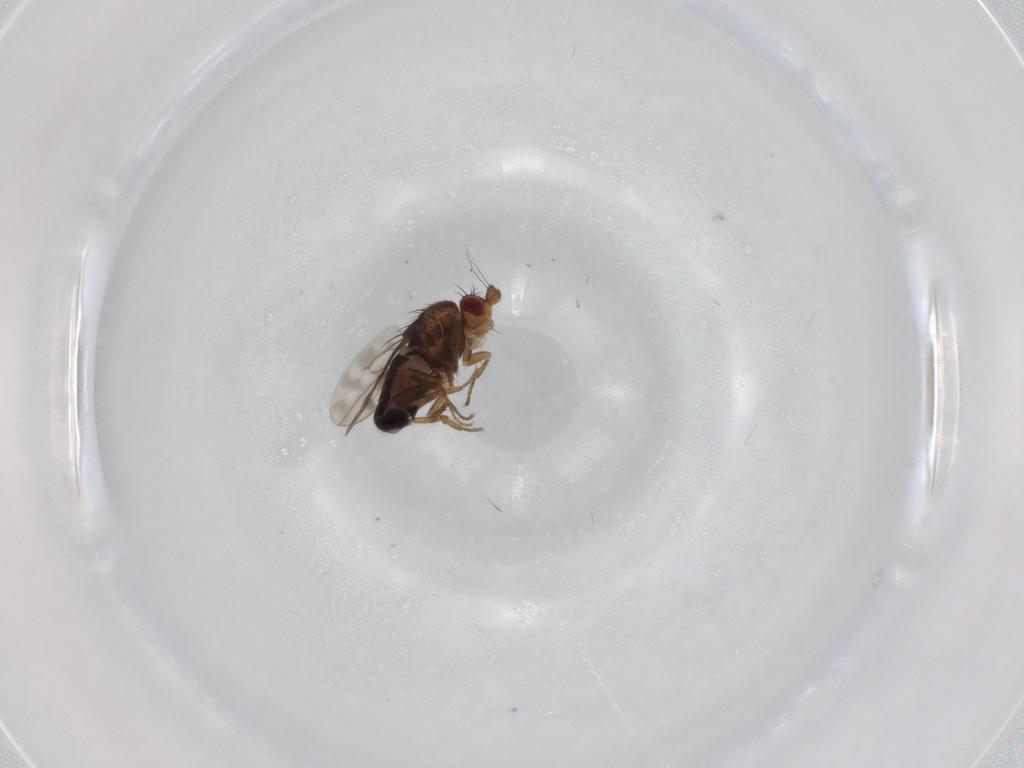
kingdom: Animalia
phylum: Arthropoda
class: Insecta
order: Diptera
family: Sphaeroceridae
